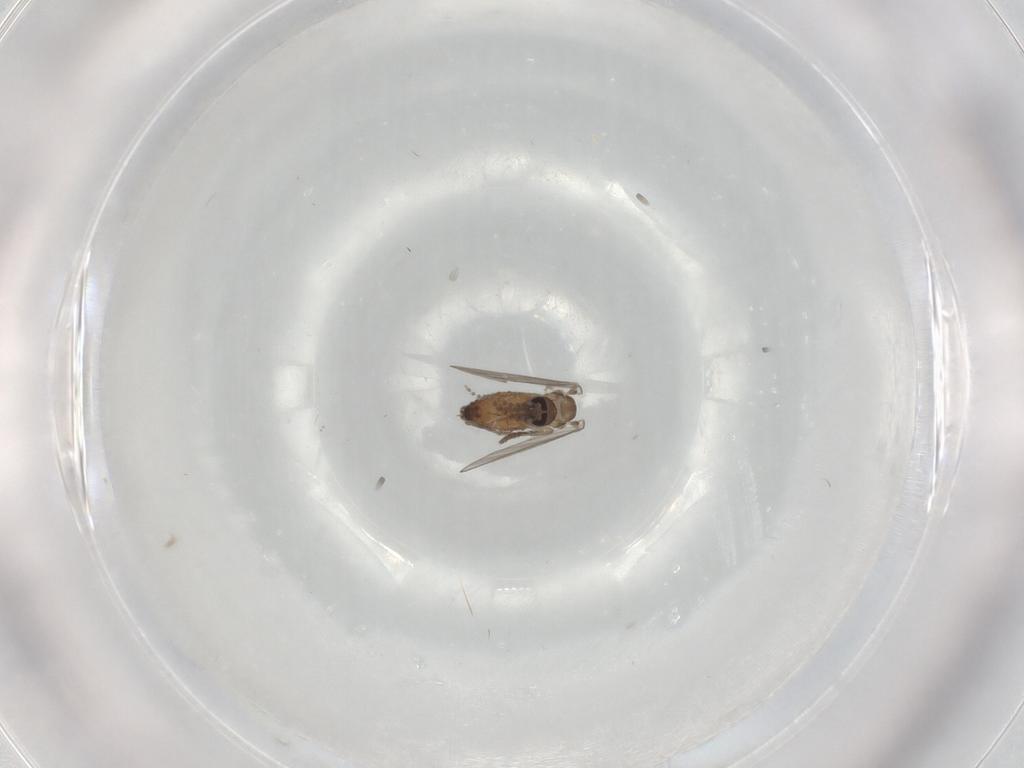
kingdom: Animalia
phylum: Arthropoda
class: Insecta
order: Diptera
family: Psychodidae
